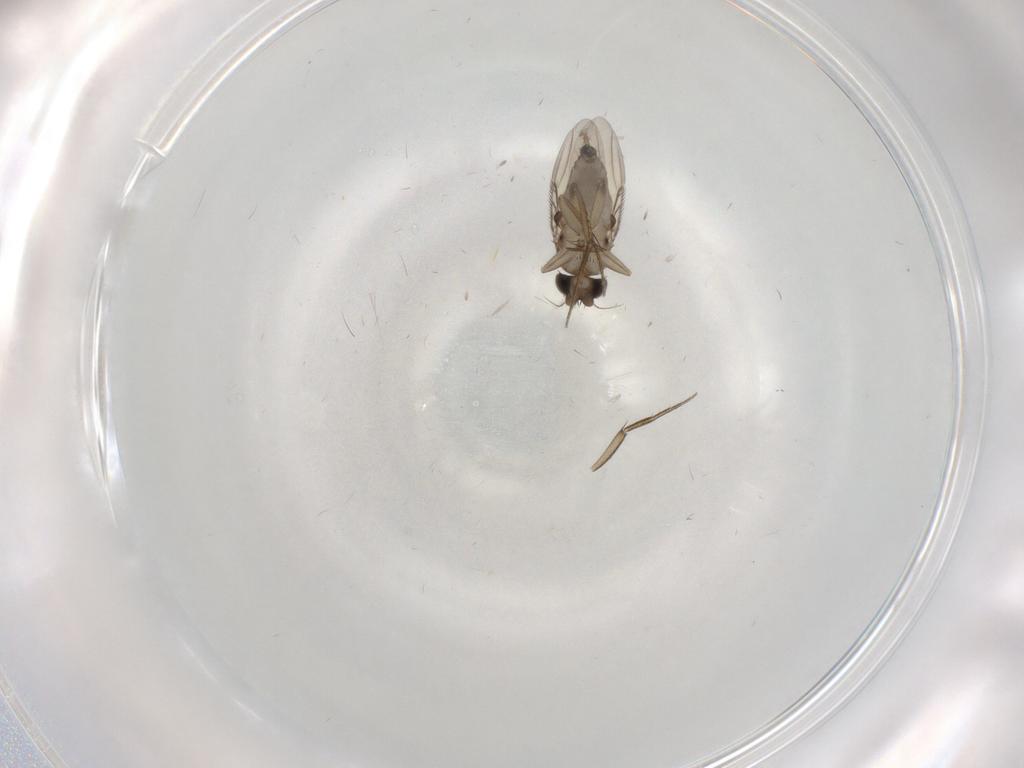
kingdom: Animalia
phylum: Arthropoda
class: Insecta
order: Diptera
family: Phoridae
